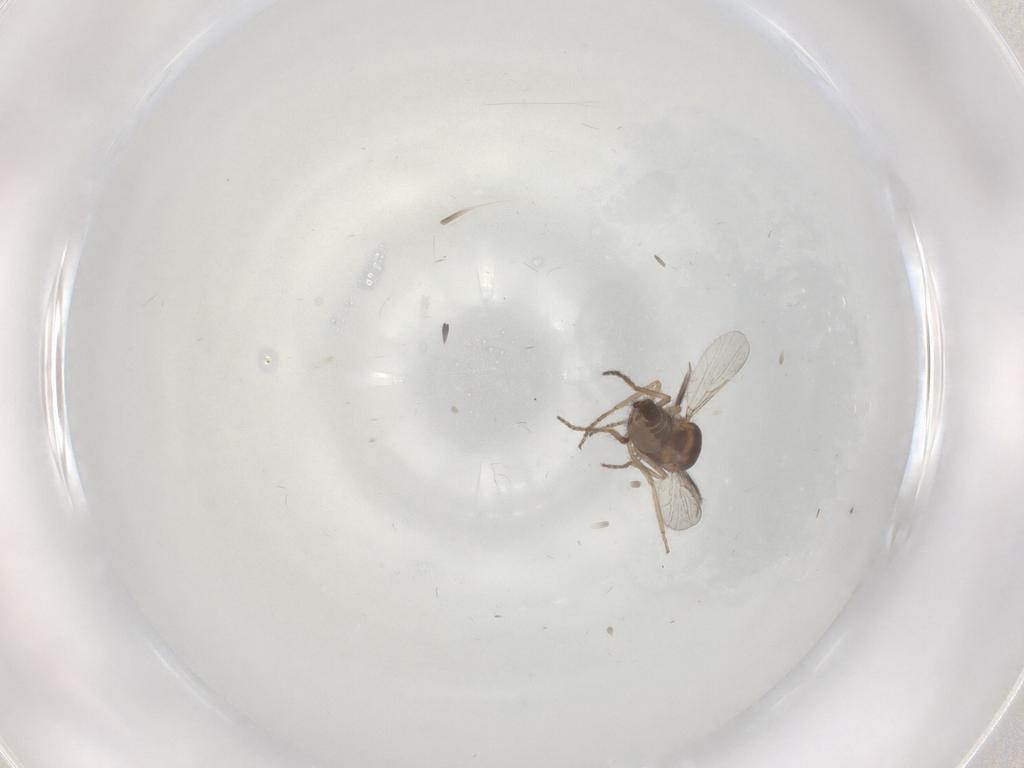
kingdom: Animalia
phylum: Arthropoda
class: Insecta
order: Diptera
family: Ceratopogonidae
